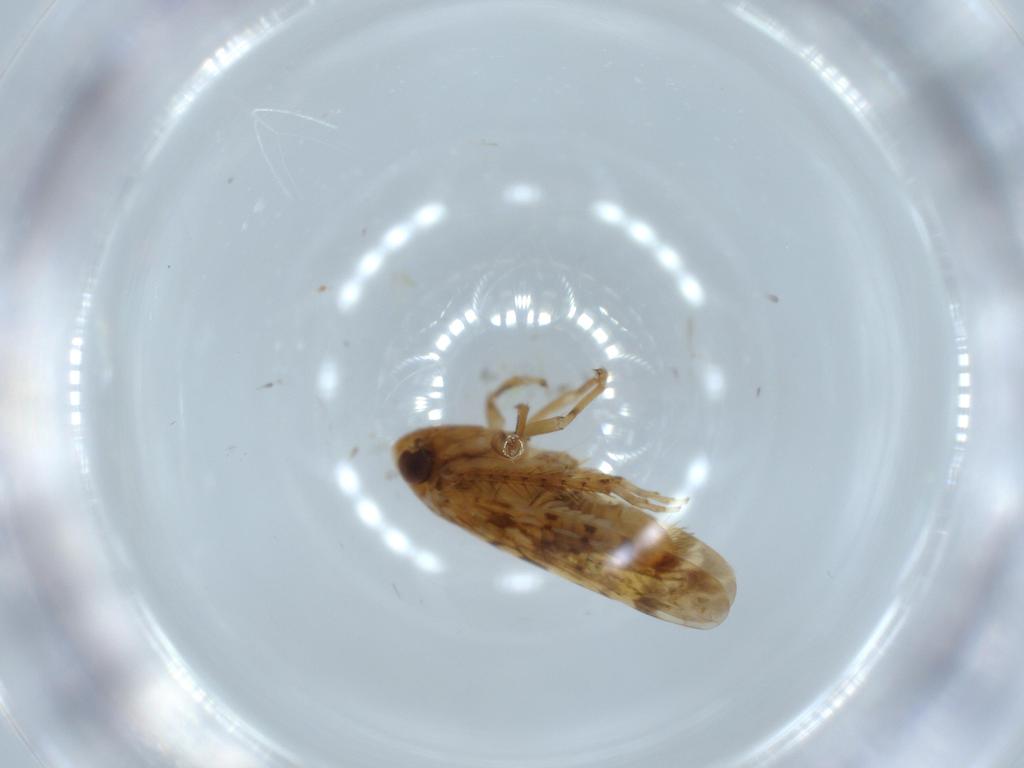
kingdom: Animalia
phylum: Arthropoda
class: Insecta
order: Hemiptera
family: Cicadellidae
